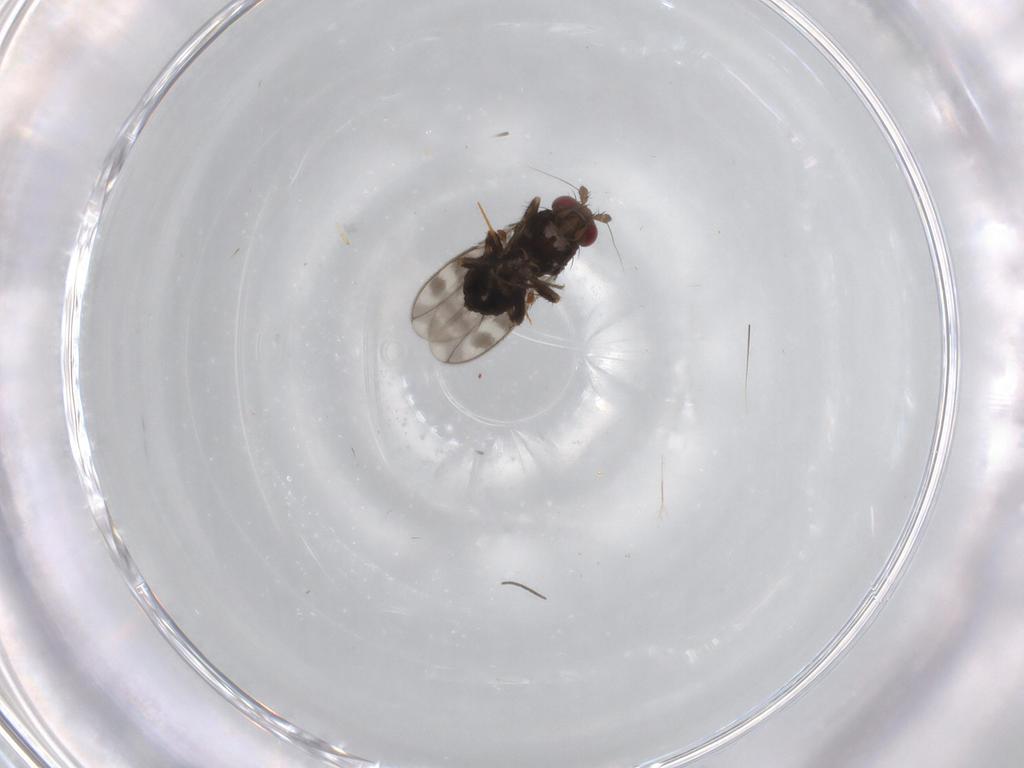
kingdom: Animalia
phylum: Arthropoda
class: Insecta
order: Diptera
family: Sphaeroceridae
